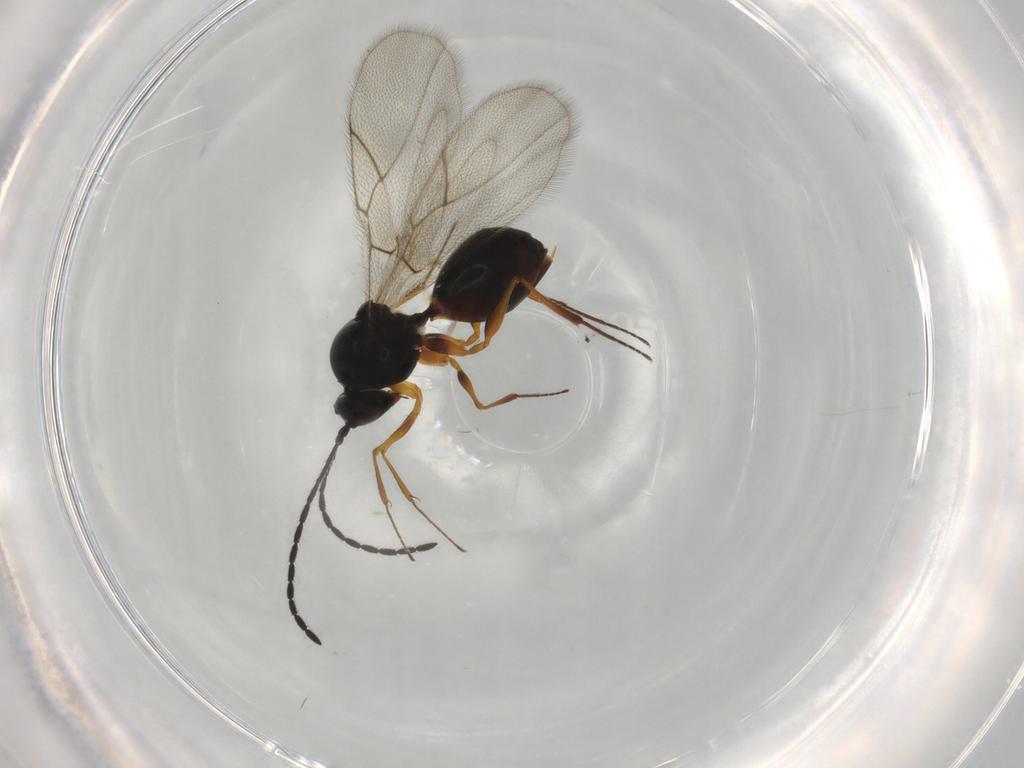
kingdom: Animalia
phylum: Arthropoda
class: Insecta
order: Hymenoptera
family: Figitidae
